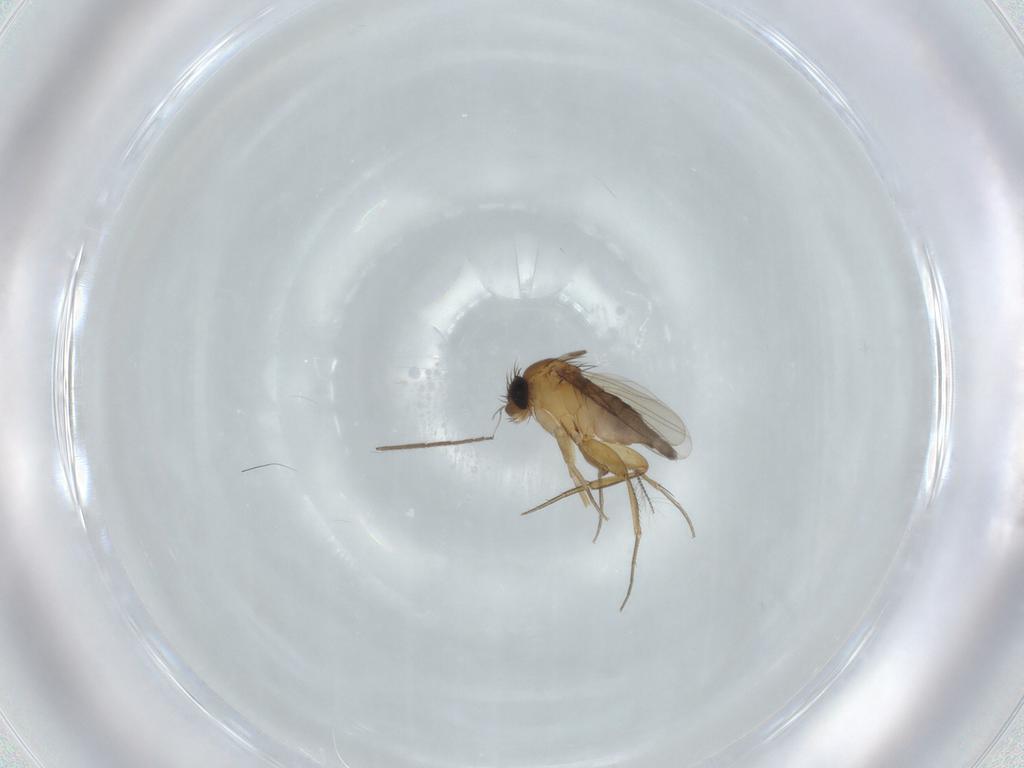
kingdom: Animalia
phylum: Arthropoda
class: Insecta
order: Diptera
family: Phoridae
